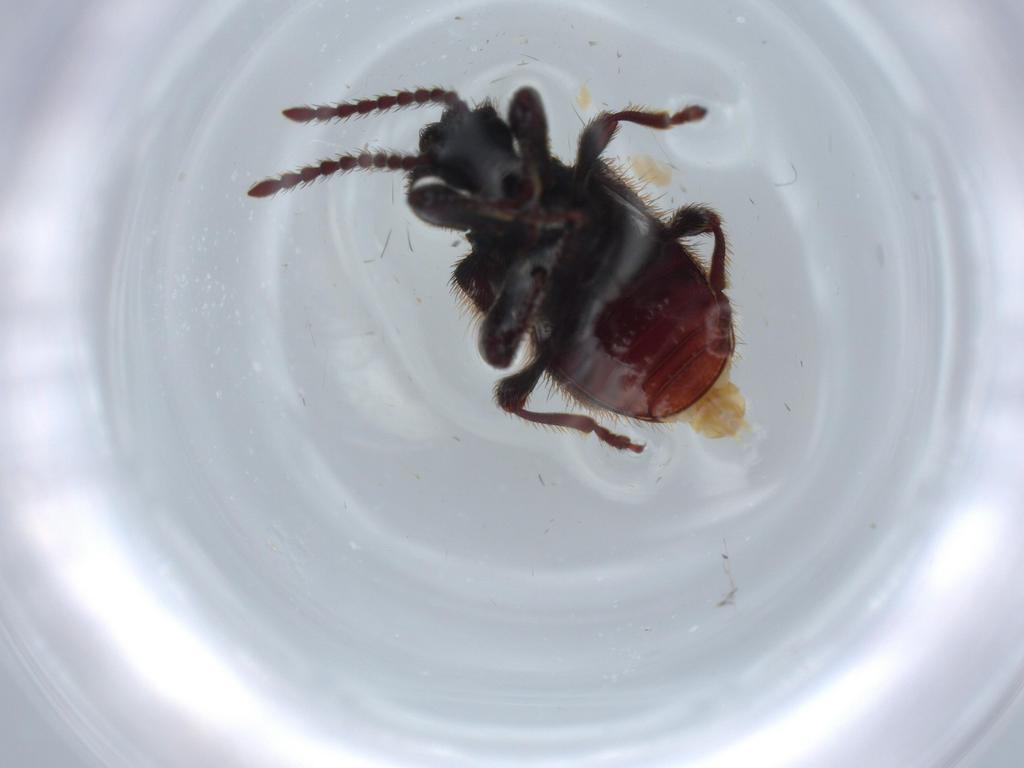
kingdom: Animalia
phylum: Arthropoda
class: Insecta
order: Coleoptera
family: Ptinidae
